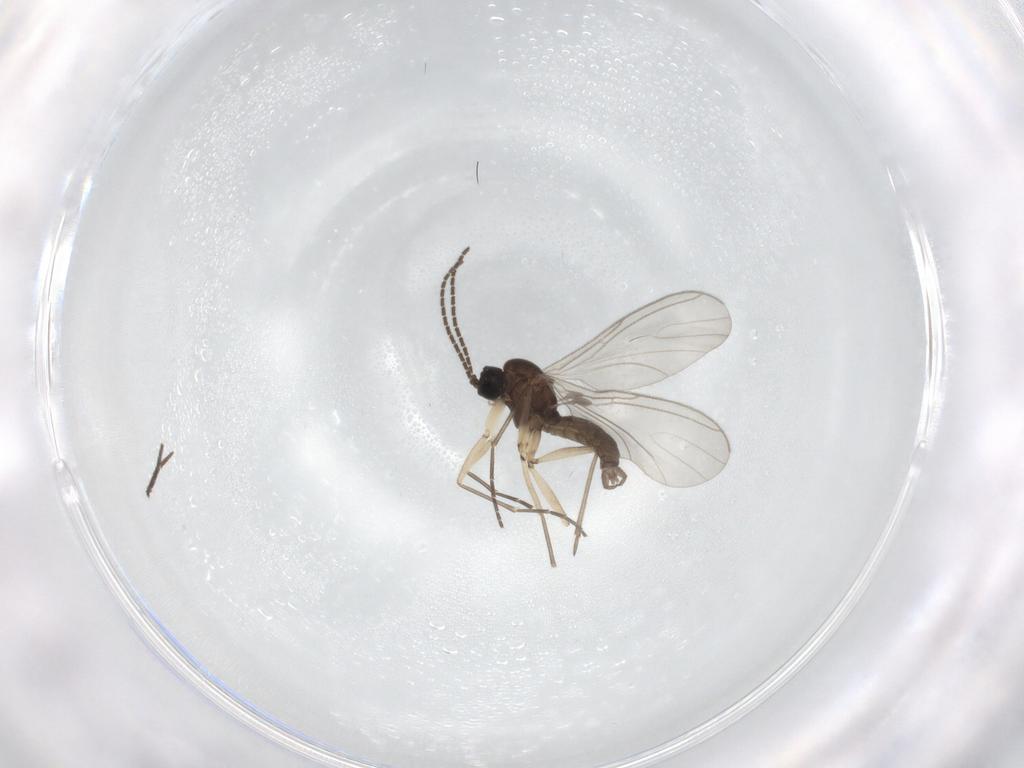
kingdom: Animalia
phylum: Arthropoda
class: Insecta
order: Diptera
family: Sciaridae
